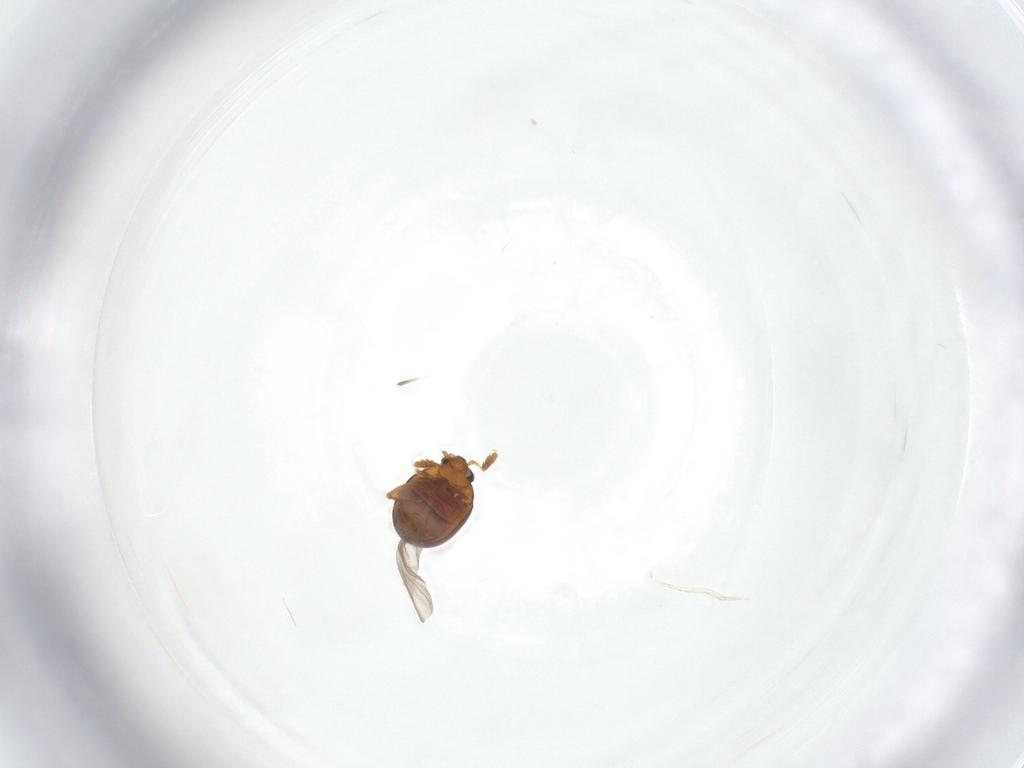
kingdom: Animalia
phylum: Arthropoda
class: Insecta
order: Coleoptera
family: Chrysomelidae
